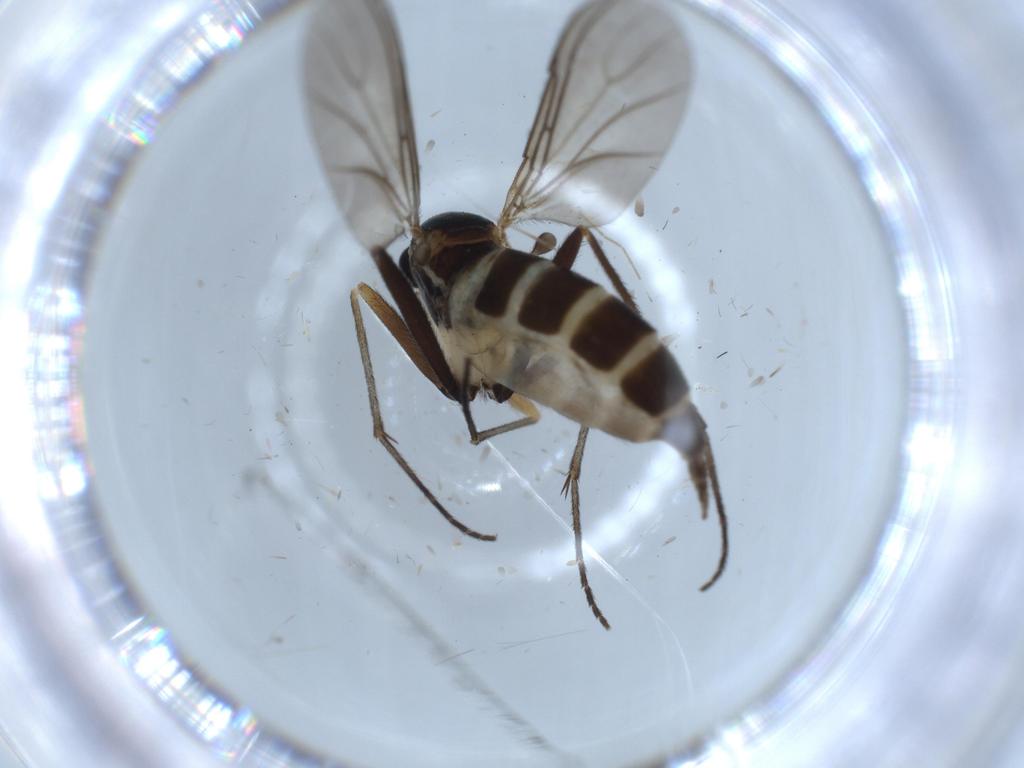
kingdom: Animalia
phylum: Arthropoda
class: Insecta
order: Diptera
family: Sciaridae
